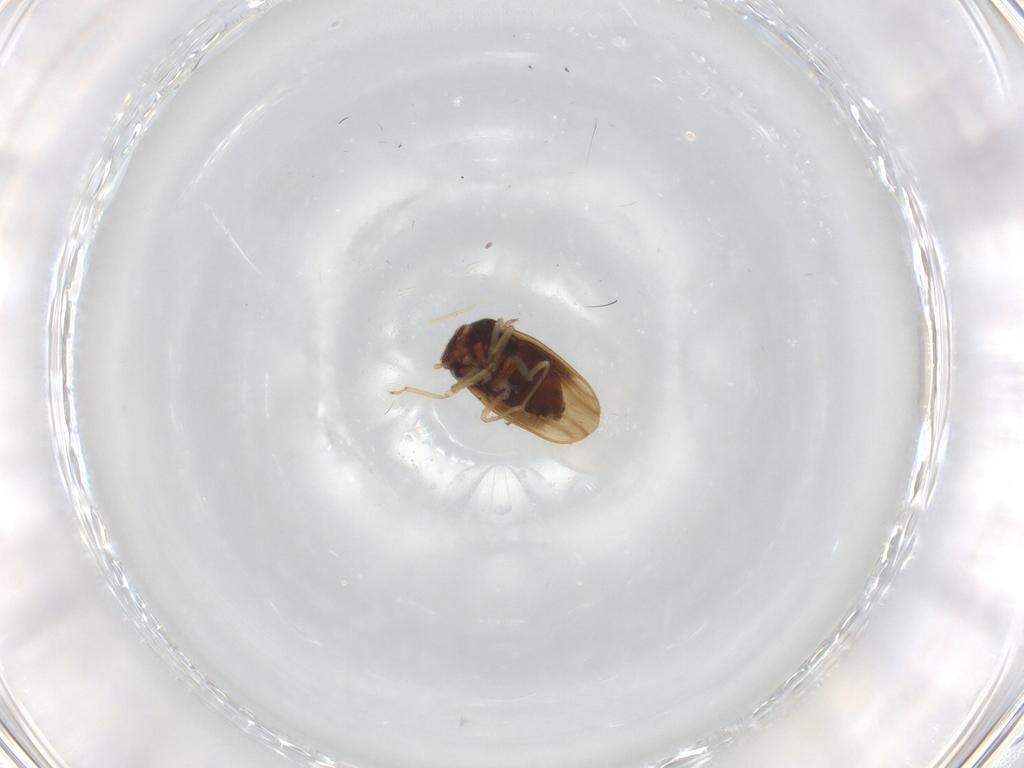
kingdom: Animalia
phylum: Arthropoda
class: Insecta
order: Hemiptera
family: Schizopteridae
